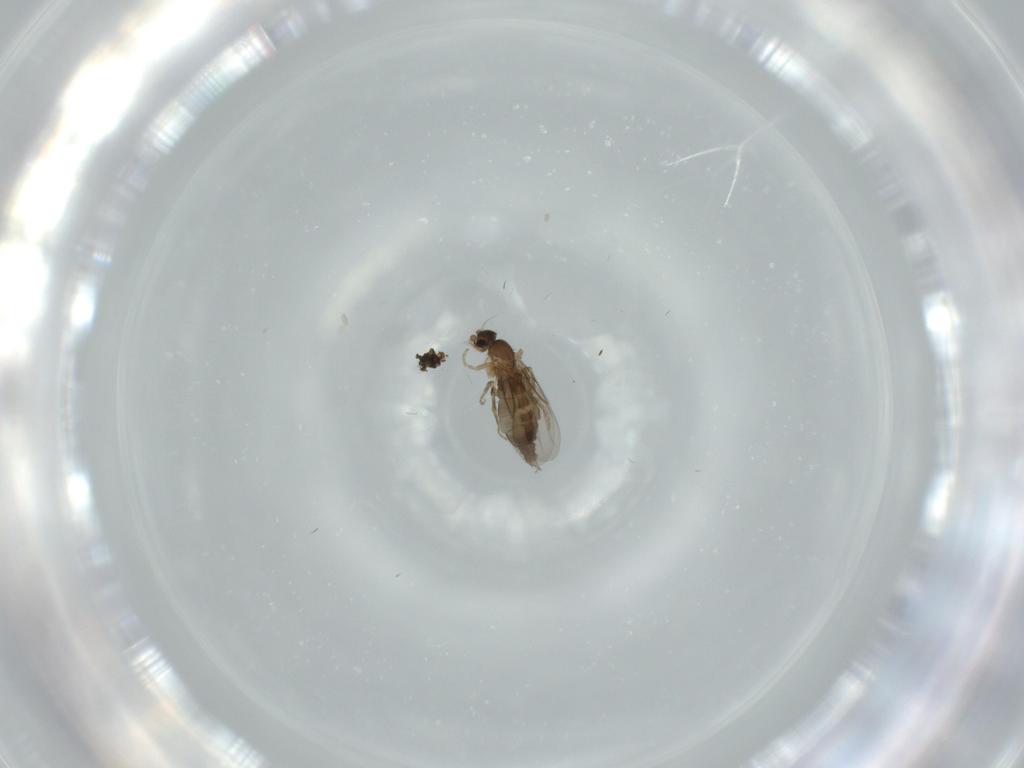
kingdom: Animalia
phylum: Arthropoda
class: Insecta
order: Diptera
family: Phoridae
